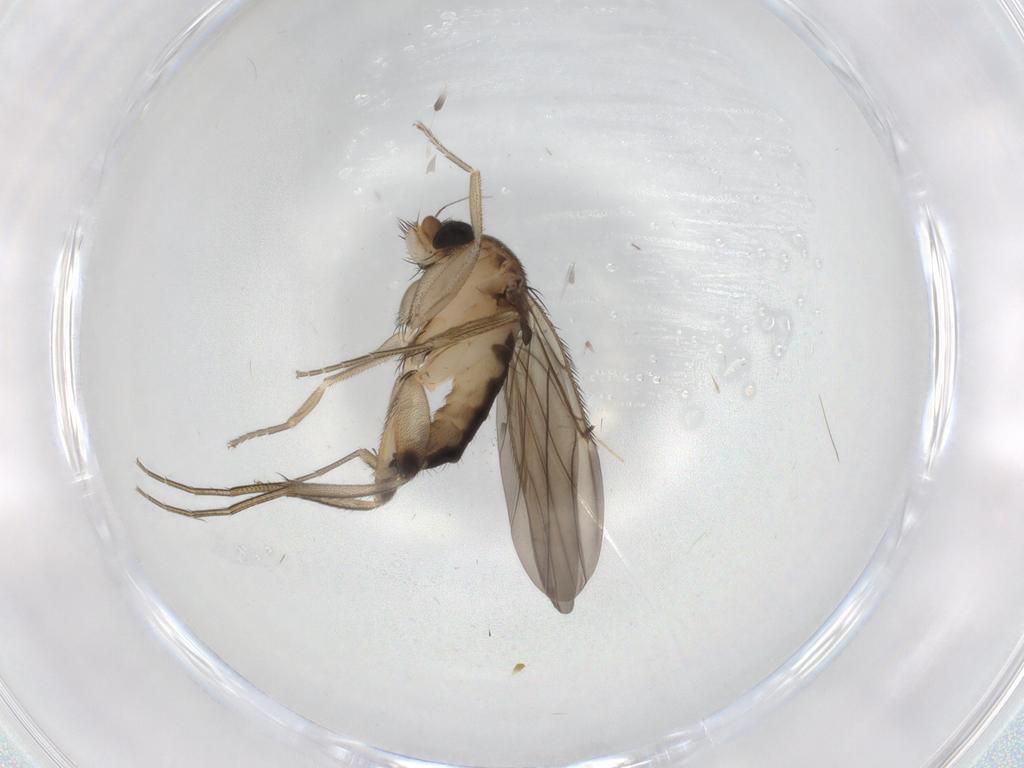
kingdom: Animalia
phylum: Arthropoda
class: Insecta
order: Diptera
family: Phoridae
